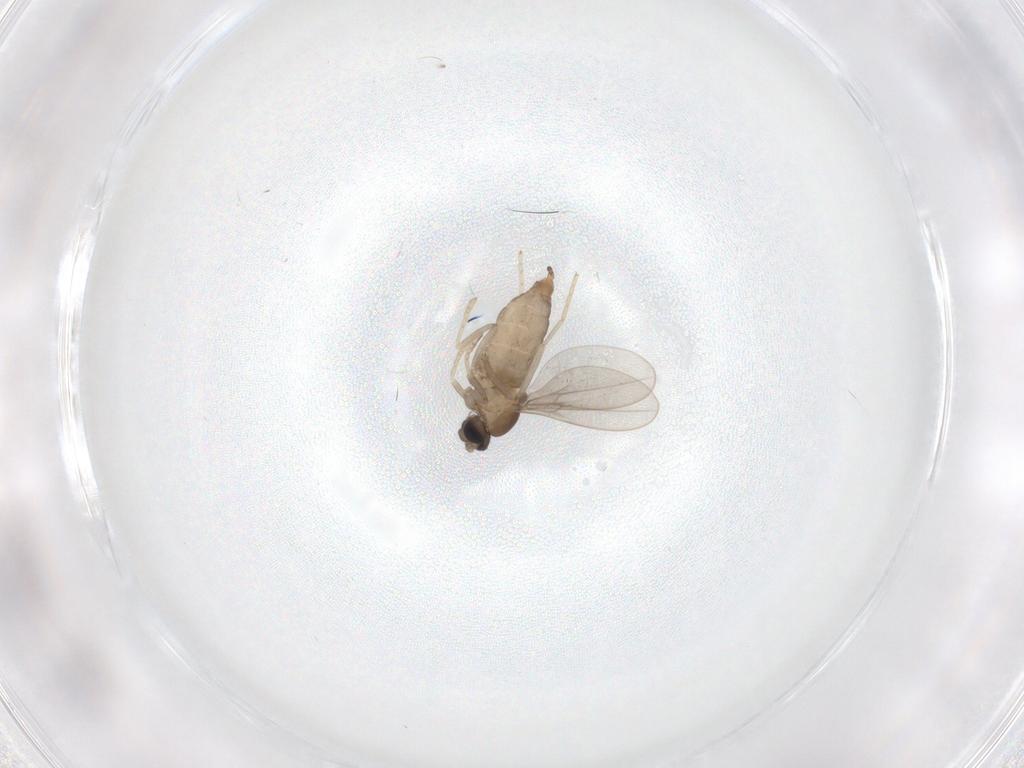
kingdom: Animalia
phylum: Arthropoda
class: Insecta
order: Diptera
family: Cecidomyiidae
